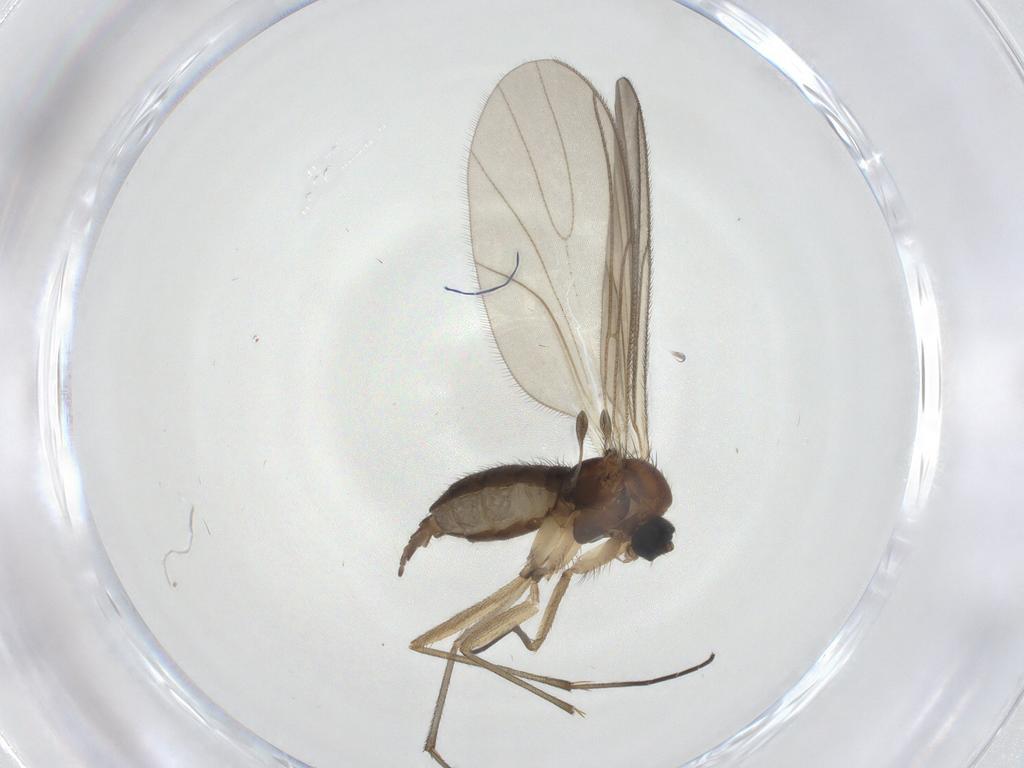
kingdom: Animalia
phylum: Arthropoda
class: Insecta
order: Diptera
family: Sciaridae
